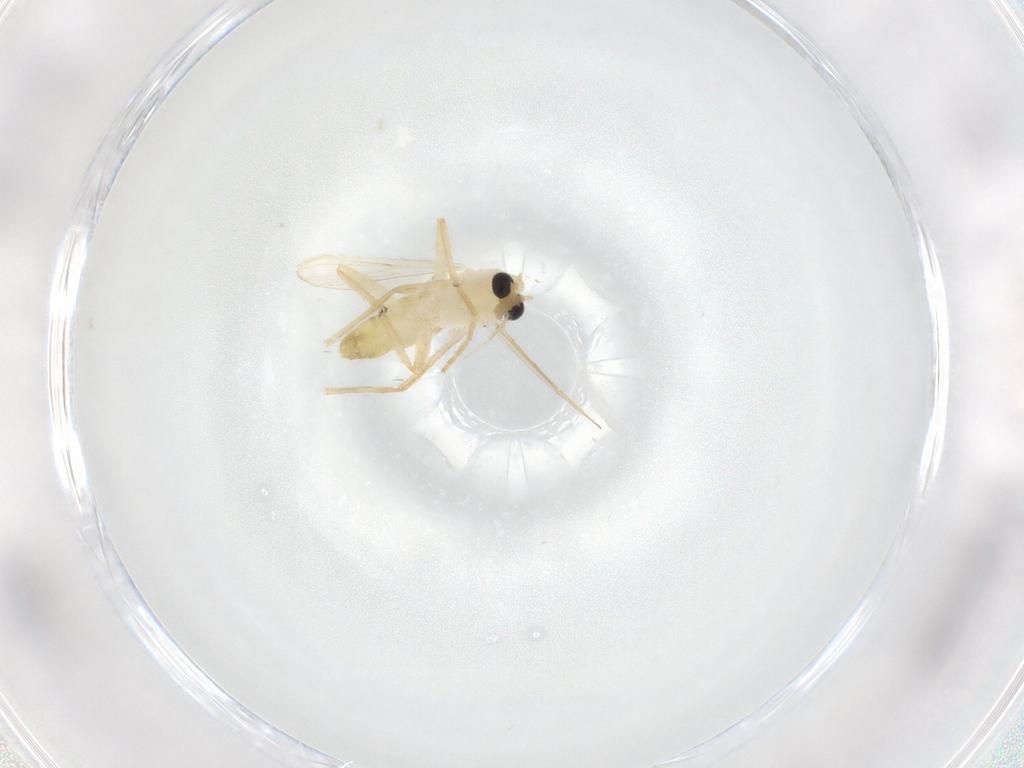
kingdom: Animalia
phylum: Arthropoda
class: Insecta
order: Diptera
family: Chironomidae
